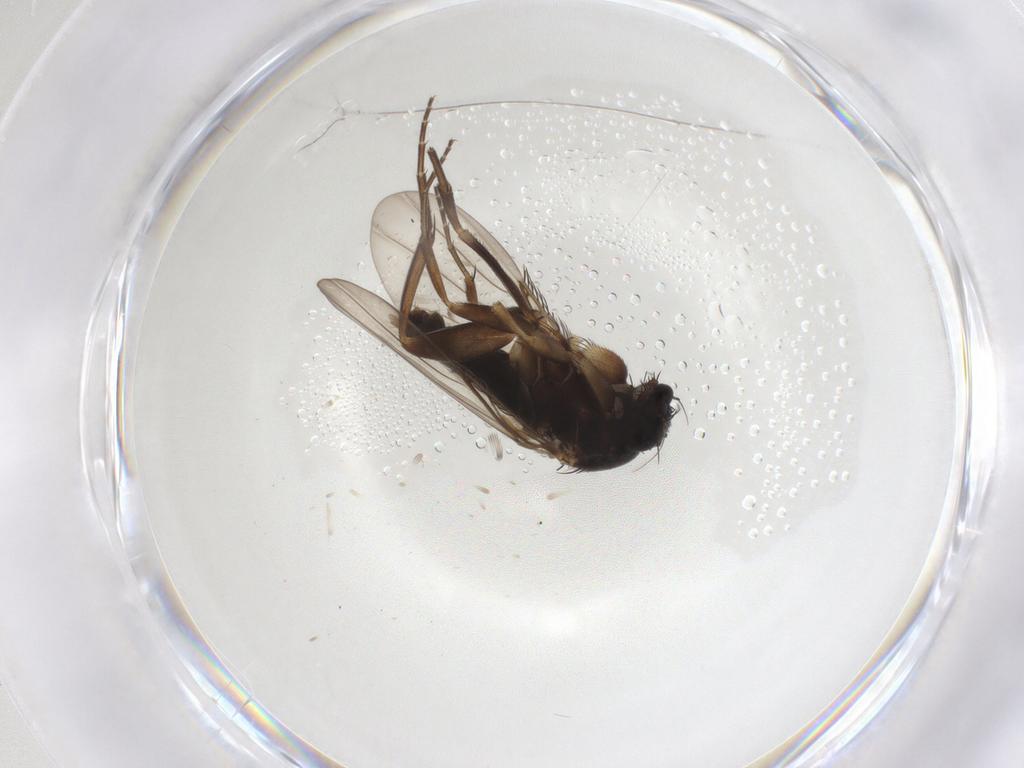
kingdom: Animalia
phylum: Arthropoda
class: Insecta
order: Diptera
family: Phoridae
